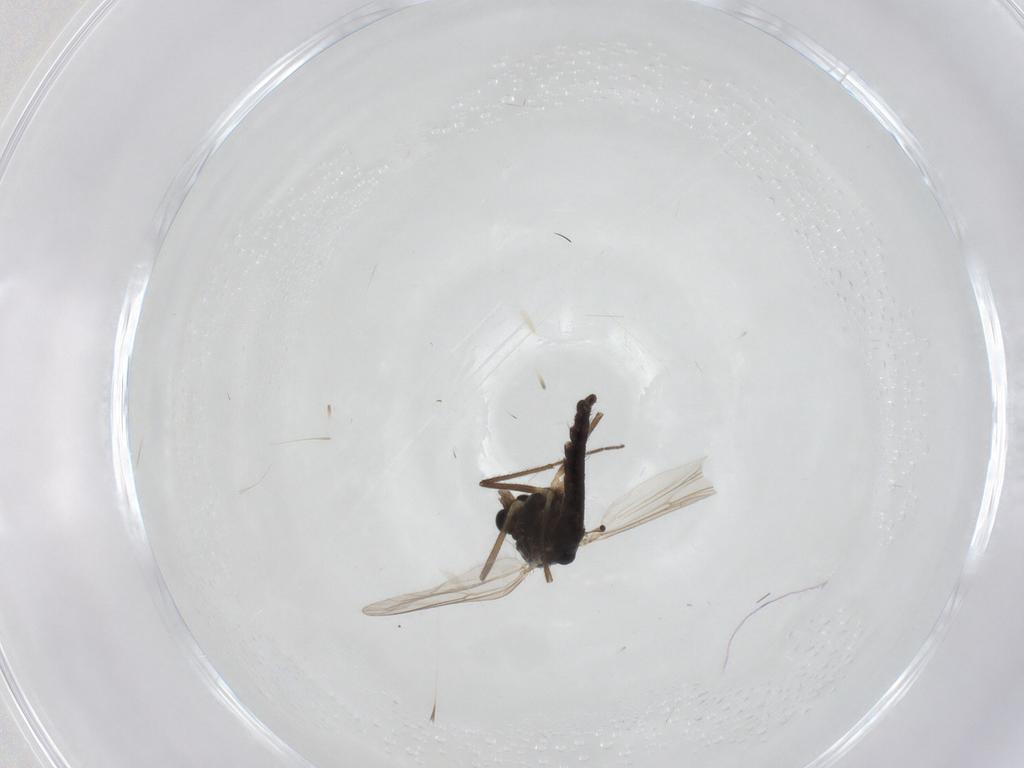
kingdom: Animalia
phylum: Arthropoda
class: Insecta
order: Diptera
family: Chironomidae
